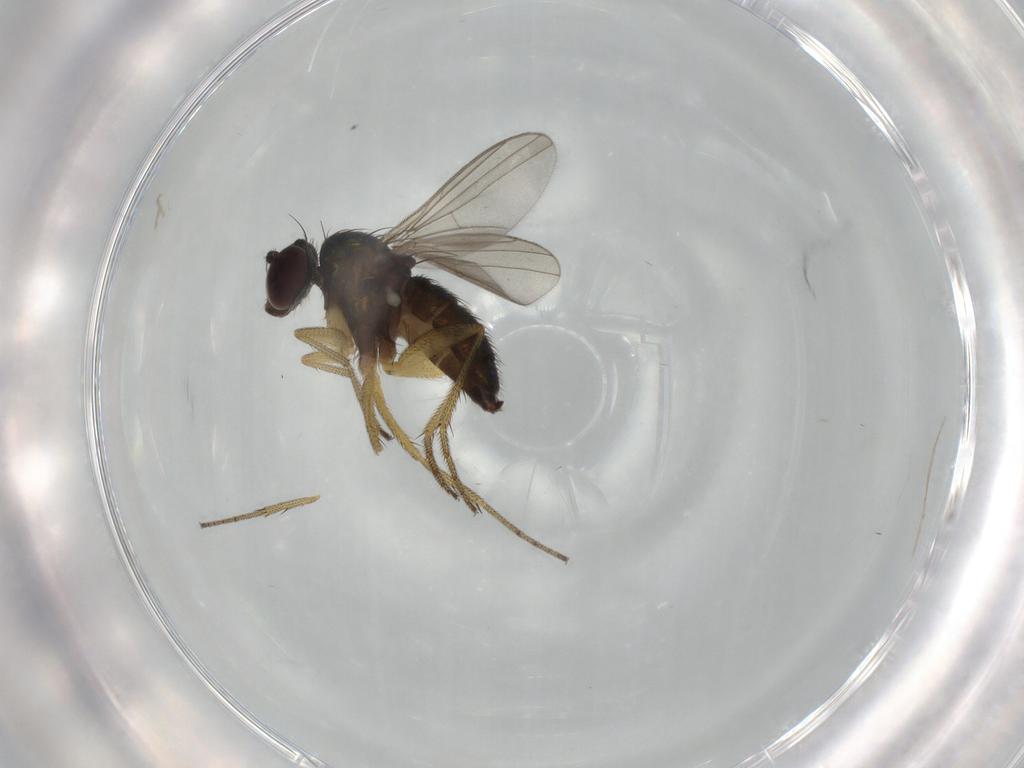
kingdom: Animalia
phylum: Arthropoda
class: Insecta
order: Diptera
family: Dolichopodidae
